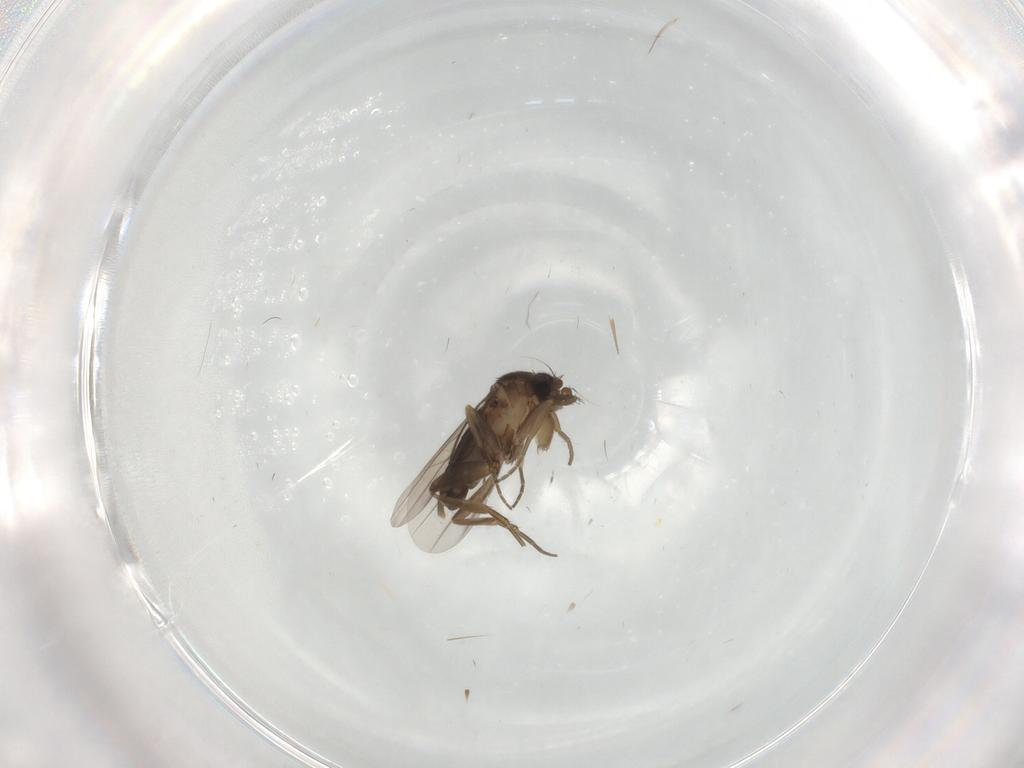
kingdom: Animalia
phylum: Arthropoda
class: Insecta
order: Diptera
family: Phoridae
